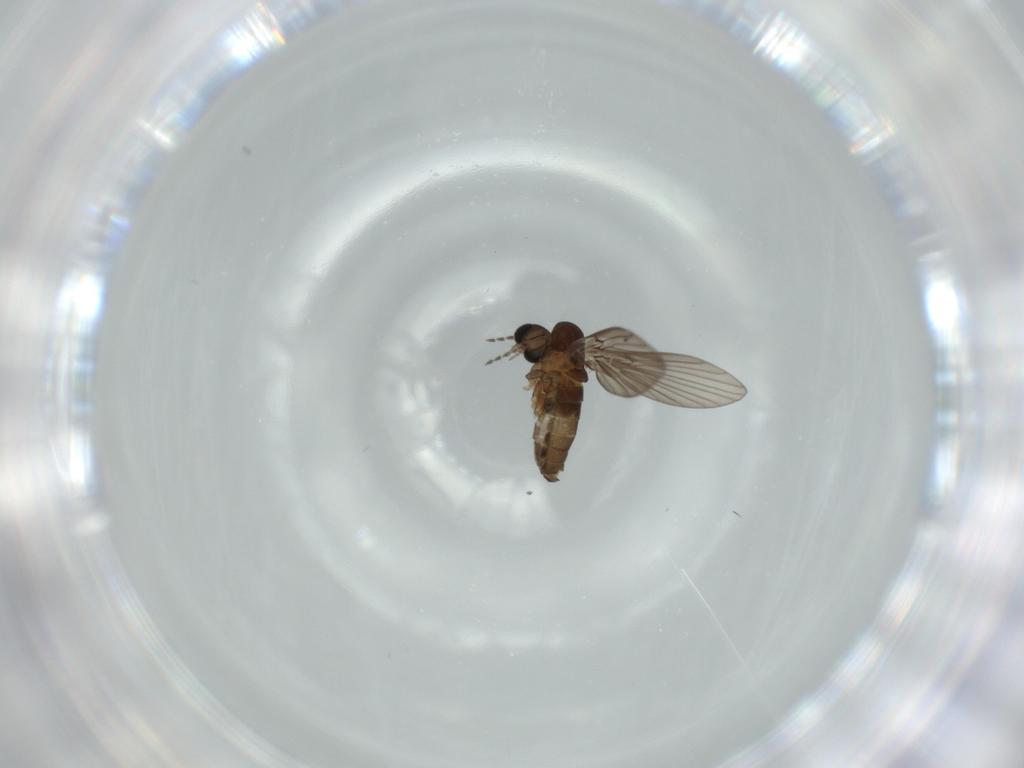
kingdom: Animalia
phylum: Arthropoda
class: Insecta
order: Diptera
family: Psychodidae
